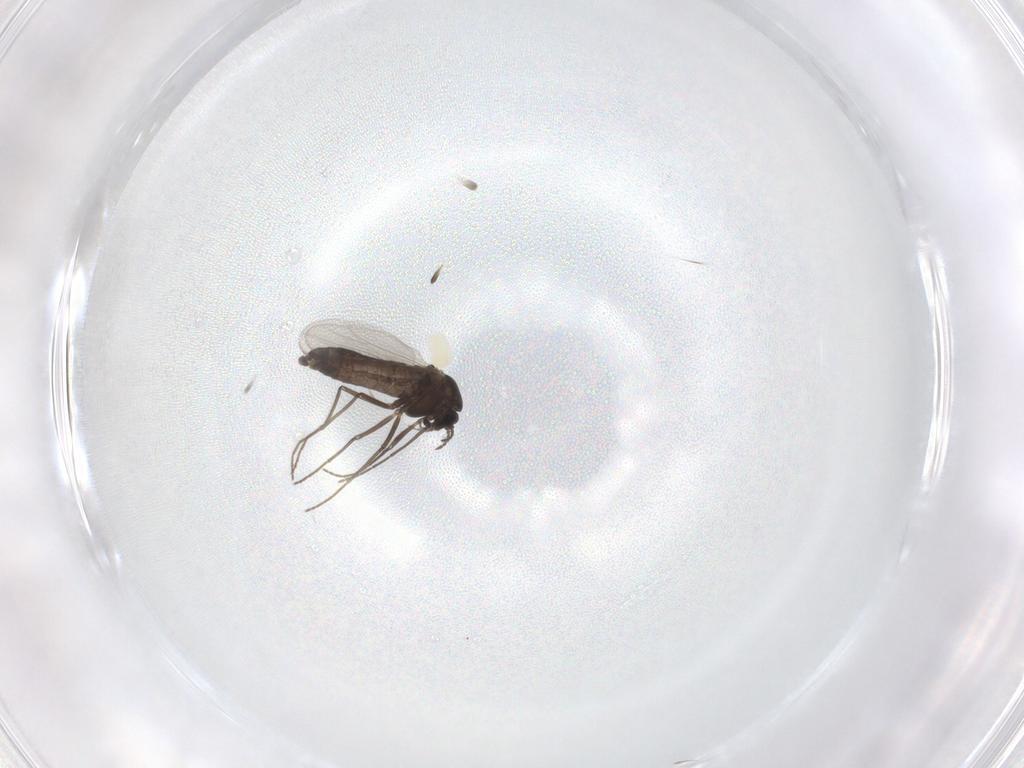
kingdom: Animalia
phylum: Arthropoda
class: Insecta
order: Diptera
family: Chironomidae
